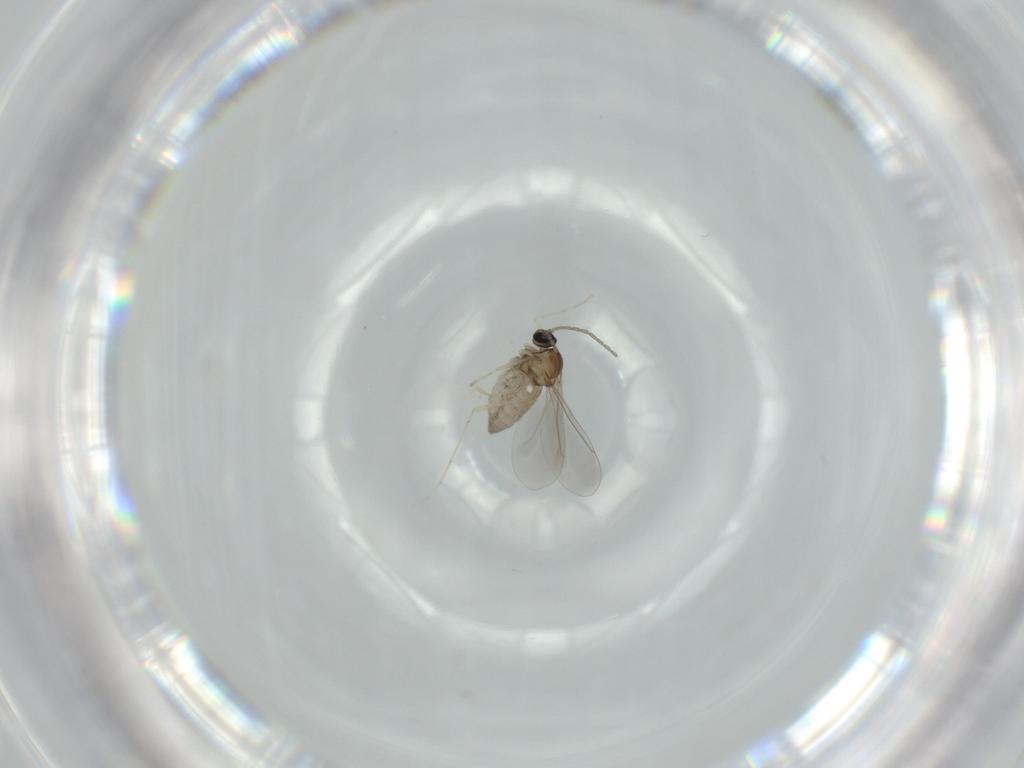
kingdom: Animalia
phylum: Arthropoda
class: Insecta
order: Diptera
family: Cecidomyiidae
